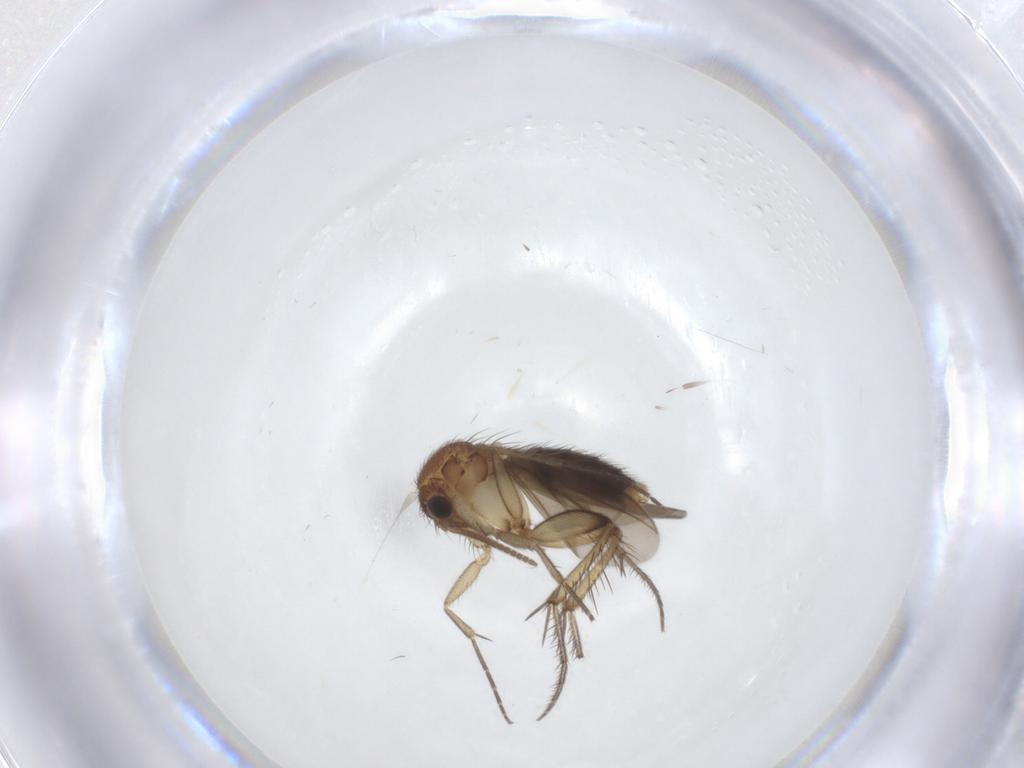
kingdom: Animalia
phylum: Arthropoda
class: Insecta
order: Diptera
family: Mycetophilidae
